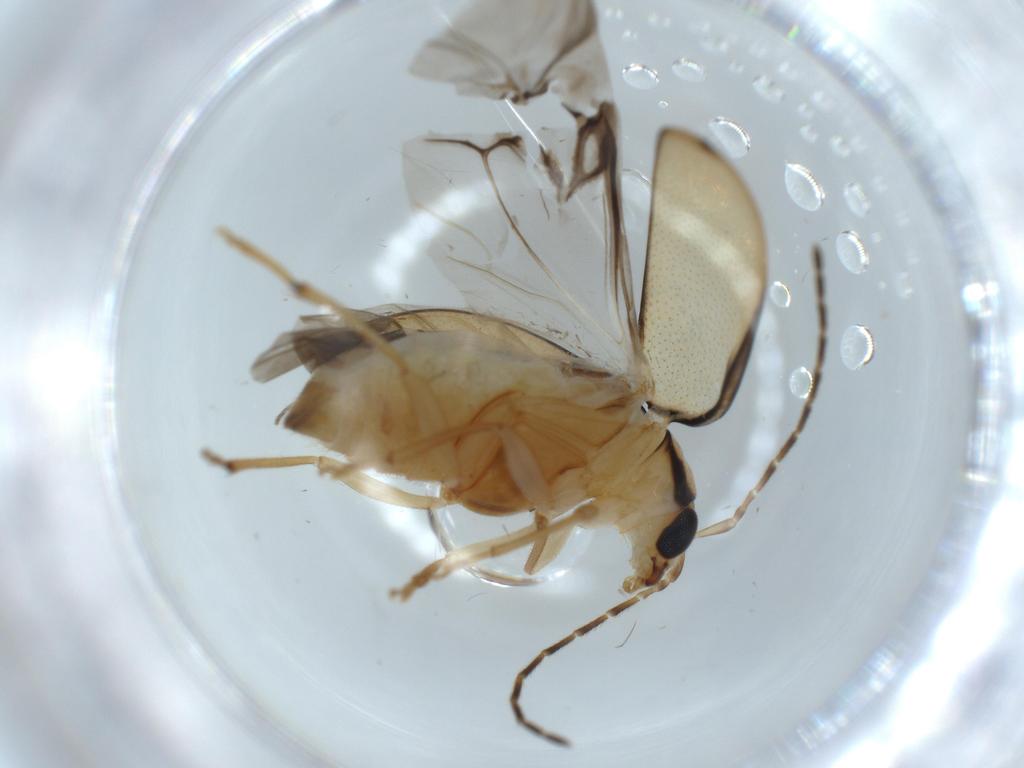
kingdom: Animalia
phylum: Arthropoda
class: Insecta
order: Coleoptera
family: Chrysomelidae
